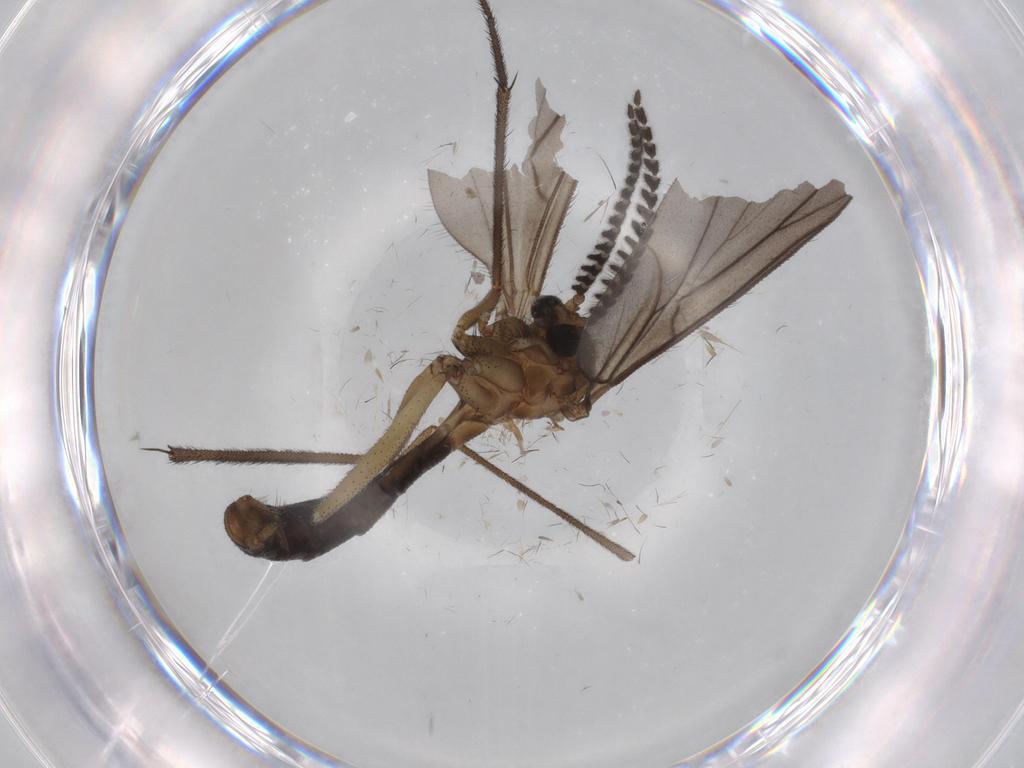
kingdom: Animalia
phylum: Arthropoda
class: Insecta
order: Diptera
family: Ditomyiidae
